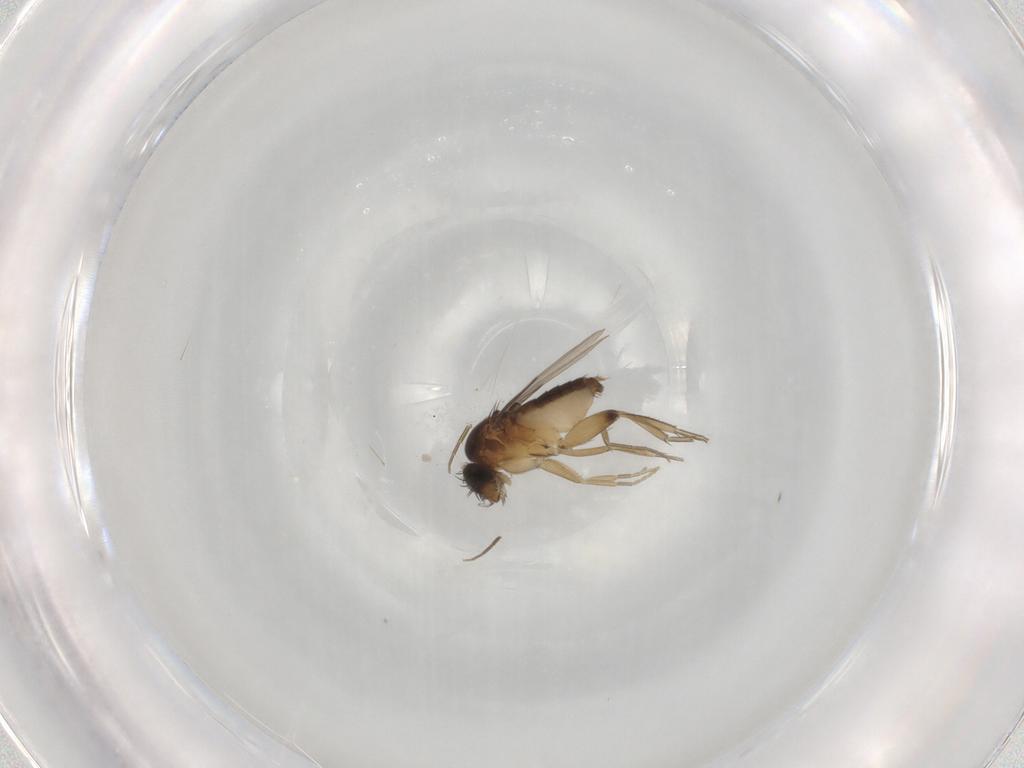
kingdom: Animalia
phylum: Arthropoda
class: Insecta
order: Diptera
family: Phoridae
